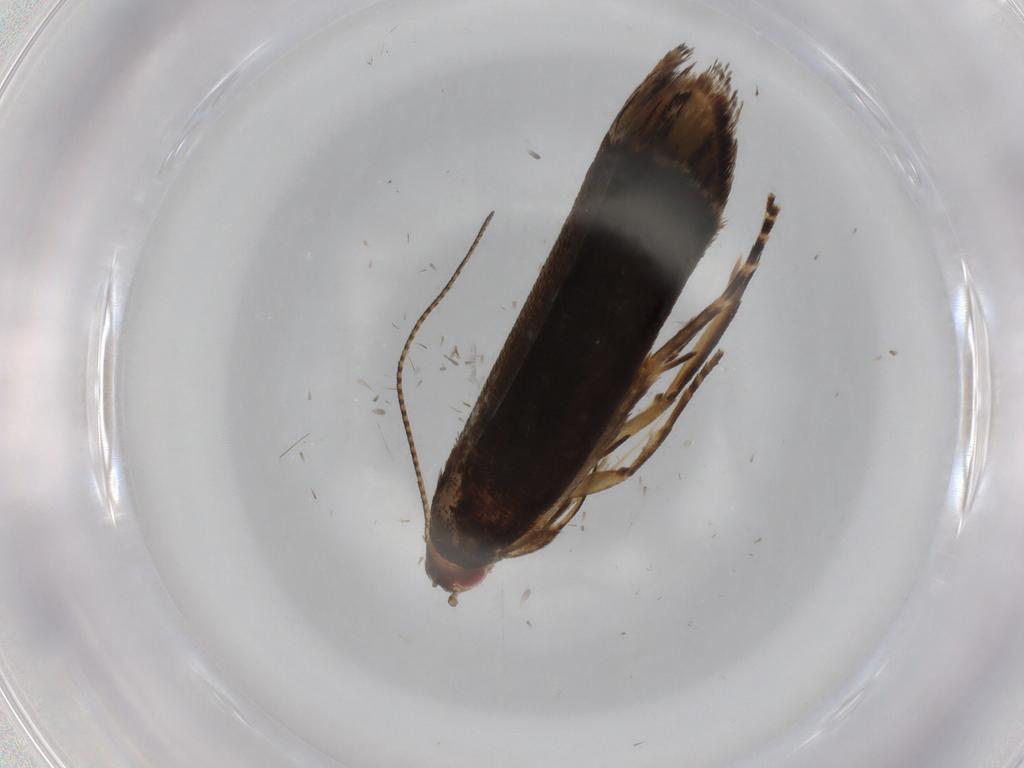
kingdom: Animalia
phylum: Arthropoda
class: Insecta
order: Lepidoptera
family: Gelechiidae
